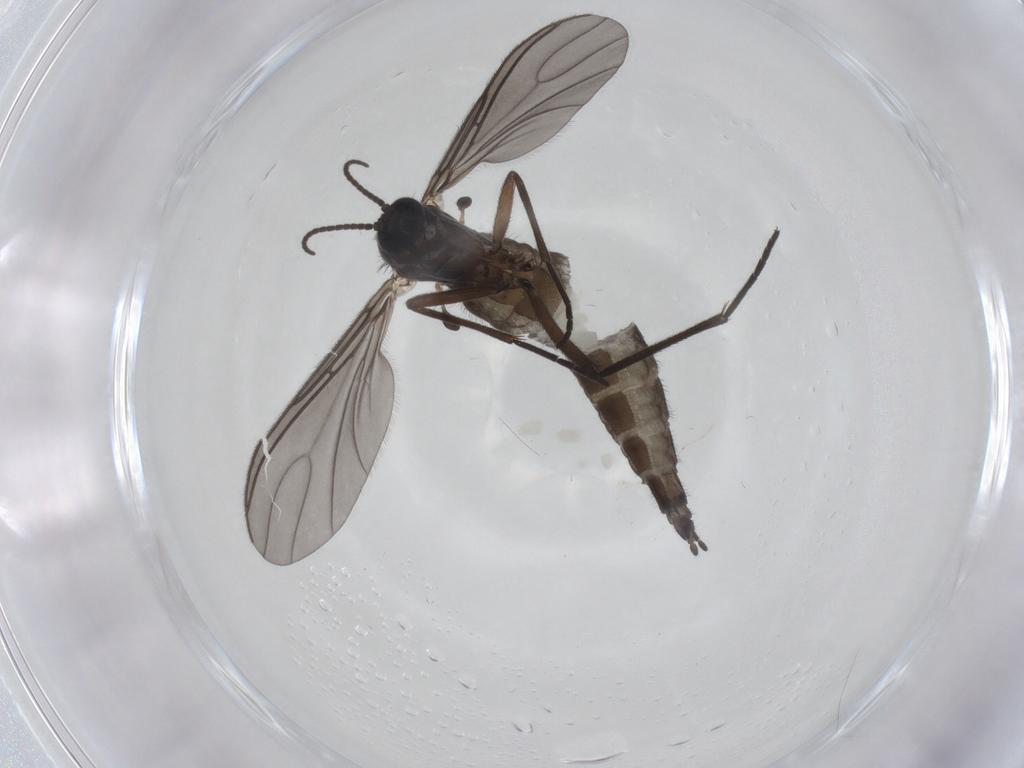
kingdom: Animalia
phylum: Arthropoda
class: Insecta
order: Diptera
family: Sciaridae
